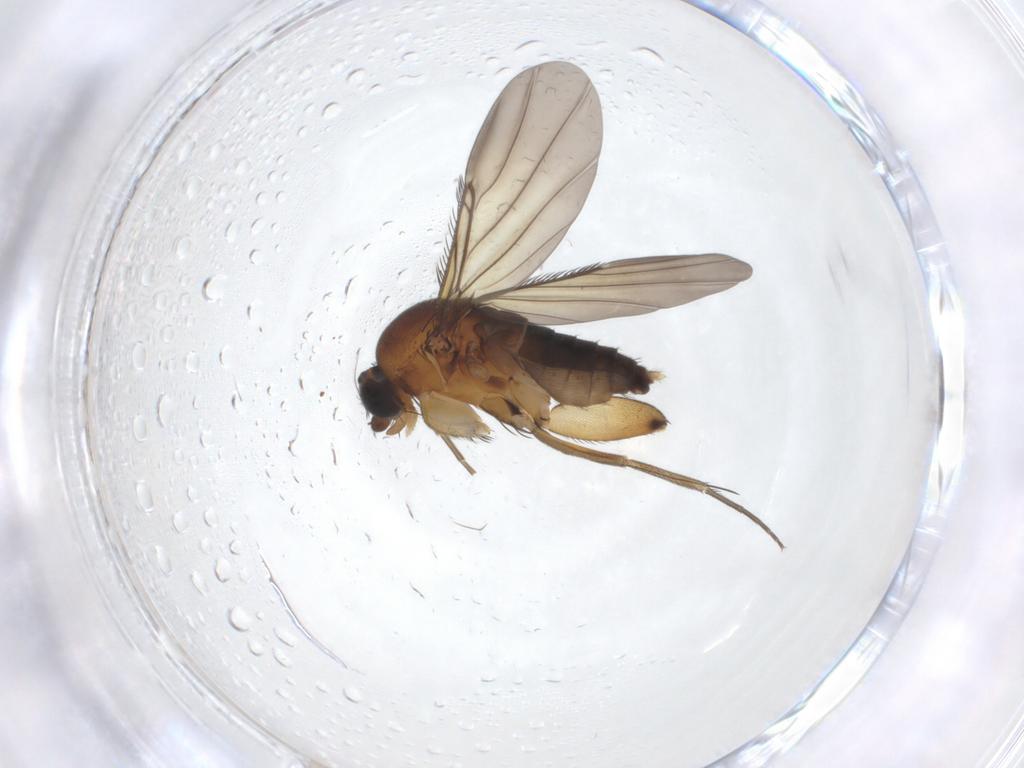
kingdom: Animalia
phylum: Arthropoda
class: Insecta
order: Diptera
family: Phoridae
